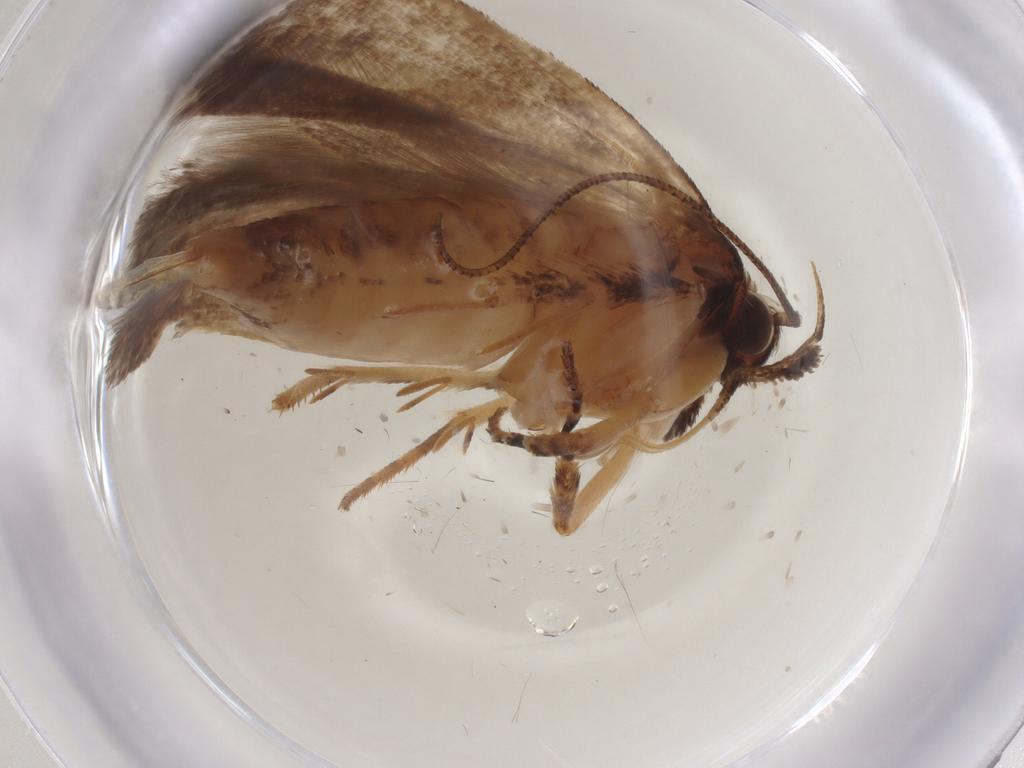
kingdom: Animalia
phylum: Arthropoda
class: Insecta
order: Lepidoptera
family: Gelechiidae
